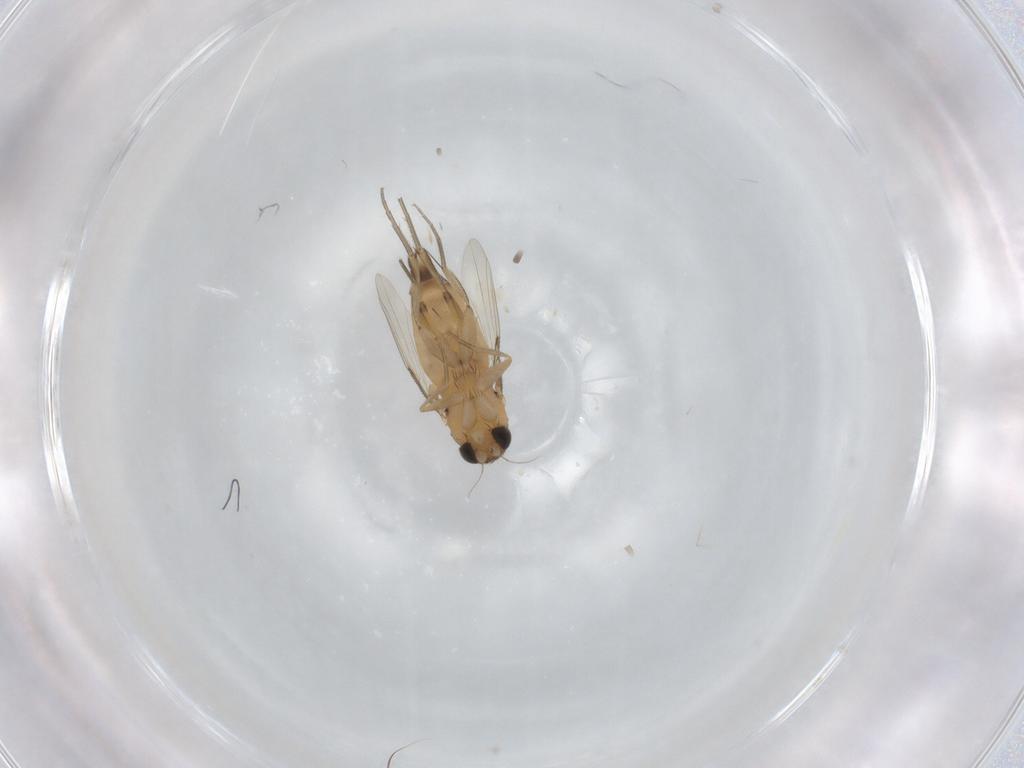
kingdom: Animalia
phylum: Arthropoda
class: Insecta
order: Diptera
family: Phoridae
